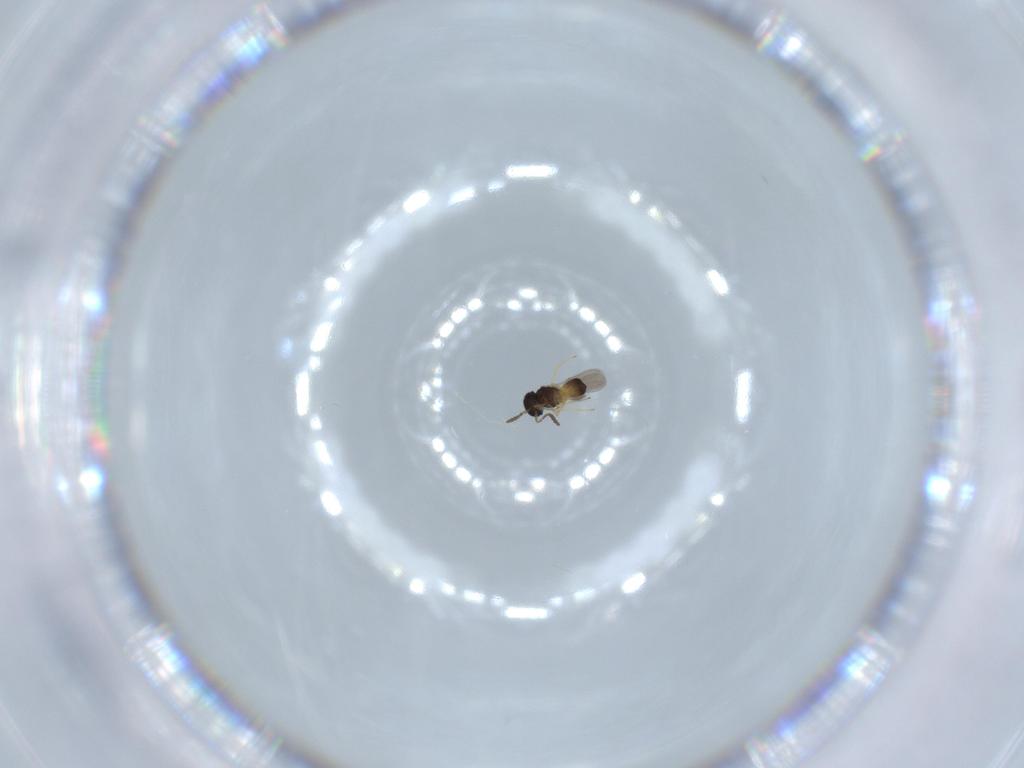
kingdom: Animalia
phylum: Arthropoda
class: Insecta
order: Hymenoptera
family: Scelionidae
